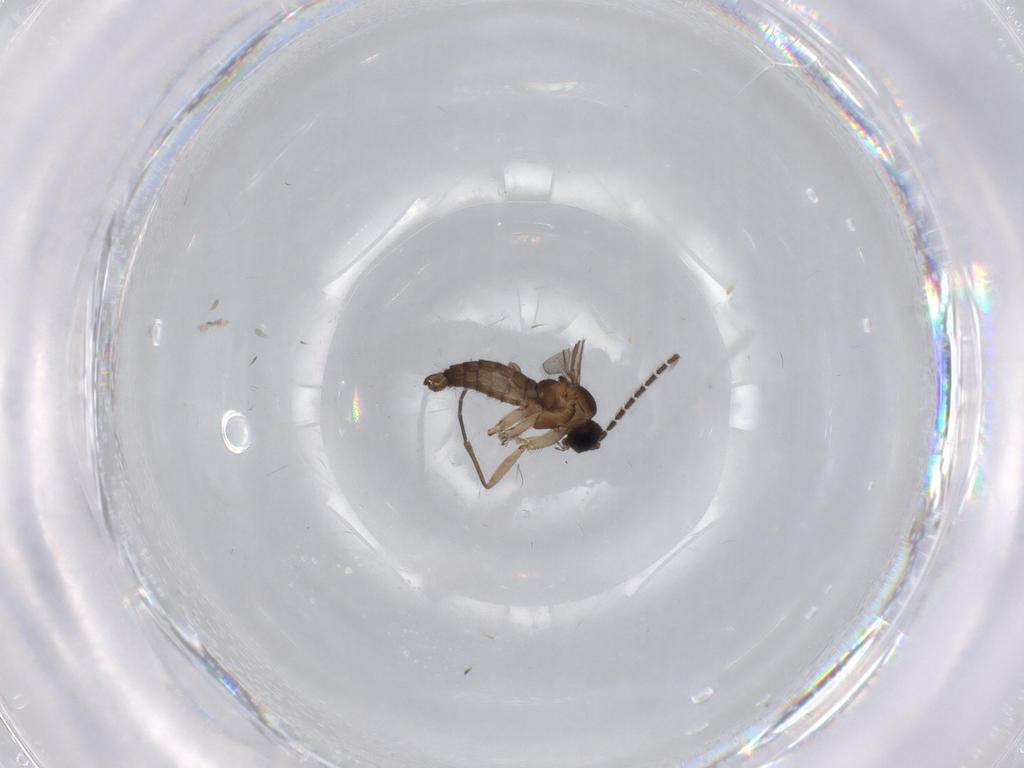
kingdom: Animalia
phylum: Arthropoda
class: Insecta
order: Diptera
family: Sciaridae
